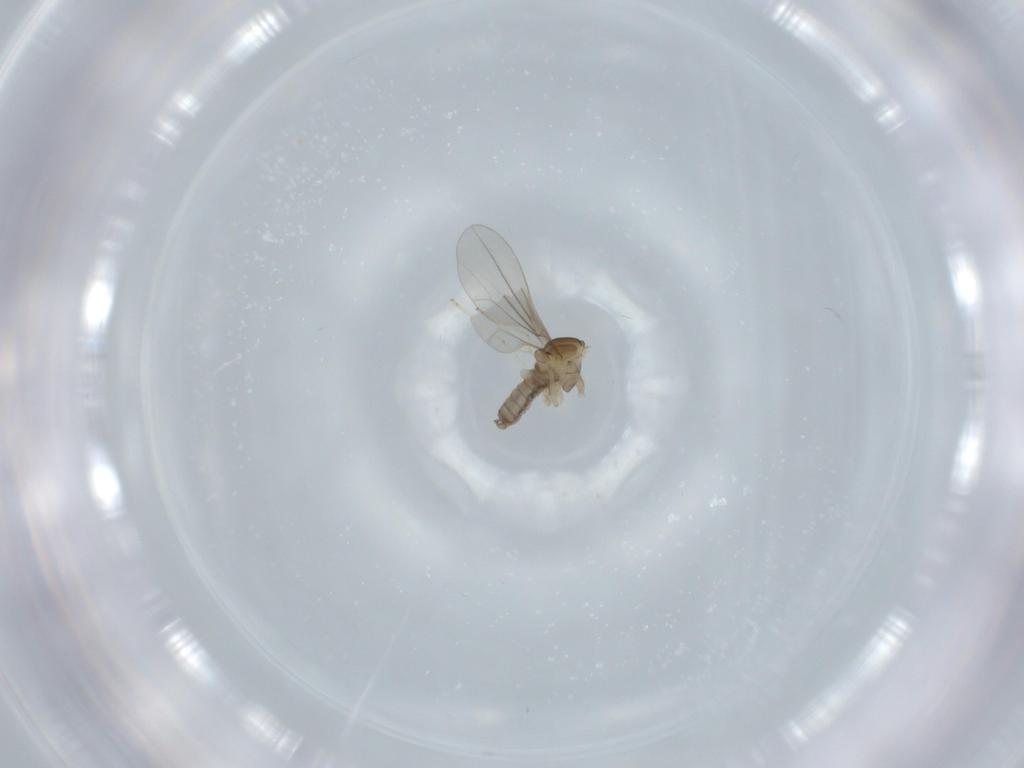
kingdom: Animalia
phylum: Arthropoda
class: Insecta
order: Diptera
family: Cecidomyiidae
